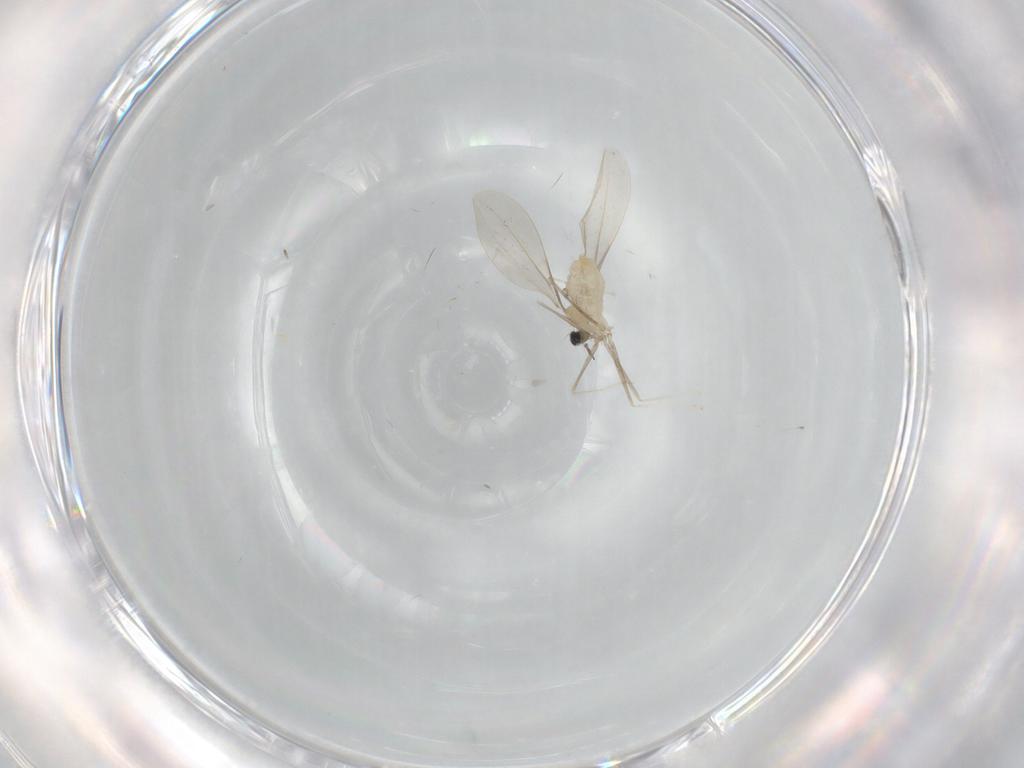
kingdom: Animalia
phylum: Arthropoda
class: Insecta
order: Diptera
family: Cecidomyiidae
